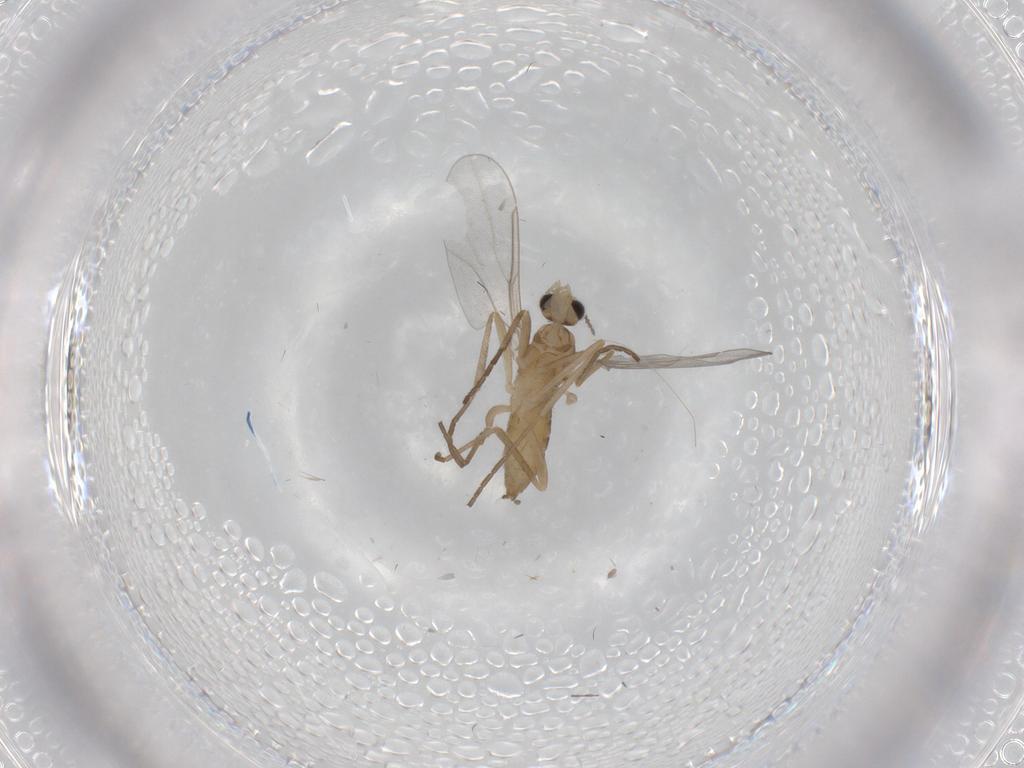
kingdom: Animalia
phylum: Arthropoda
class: Insecta
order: Diptera
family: Cecidomyiidae
